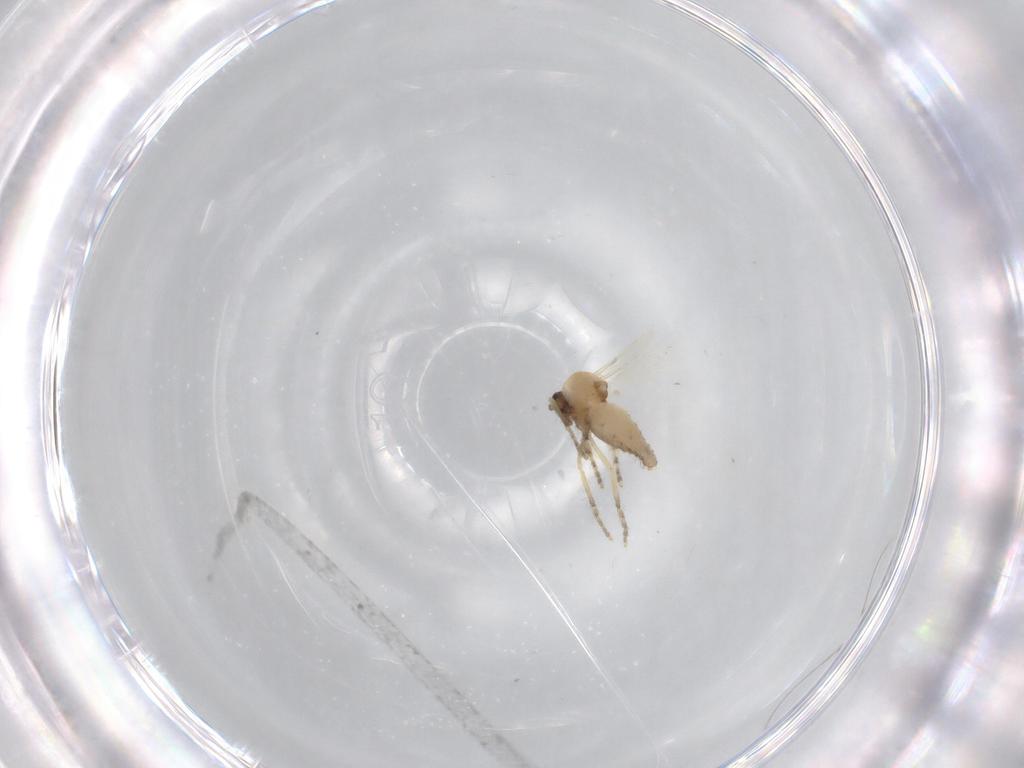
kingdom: Animalia
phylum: Arthropoda
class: Insecta
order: Diptera
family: Ceratopogonidae
